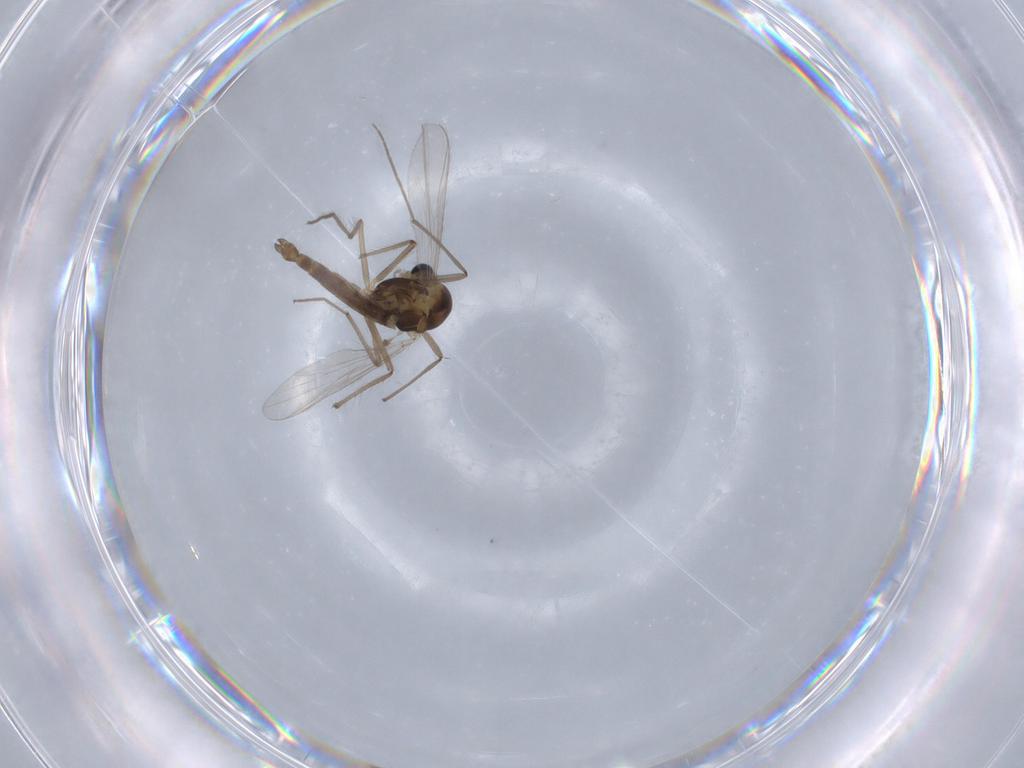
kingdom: Animalia
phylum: Arthropoda
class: Insecta
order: Diptera
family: Chironomidae
